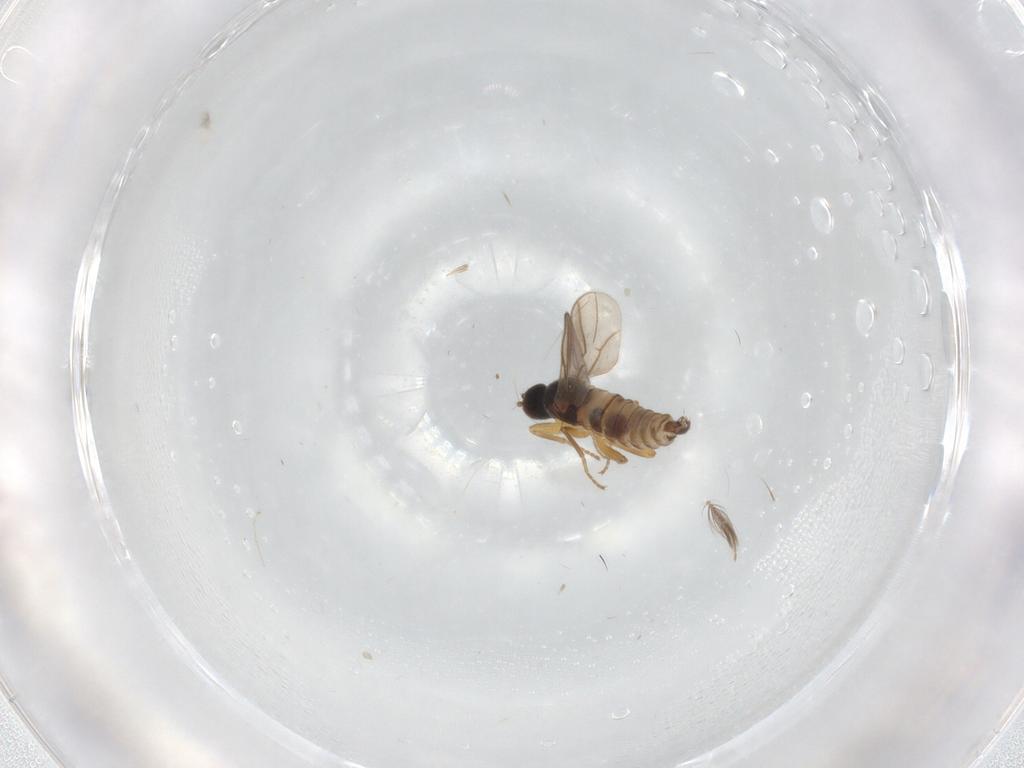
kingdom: Animalia
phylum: Arthropoda
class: Insecta
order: Diptera
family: Hybotidae
